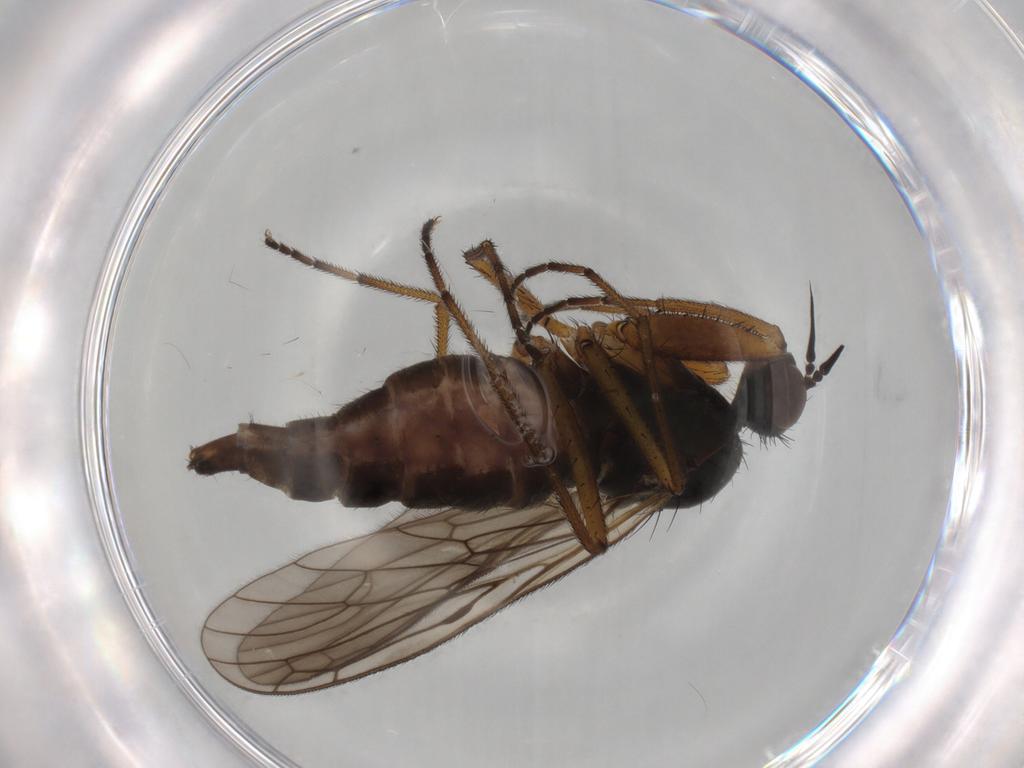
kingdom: Animalia
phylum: Arthropoda
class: Insecta
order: Diptera
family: Empididae
